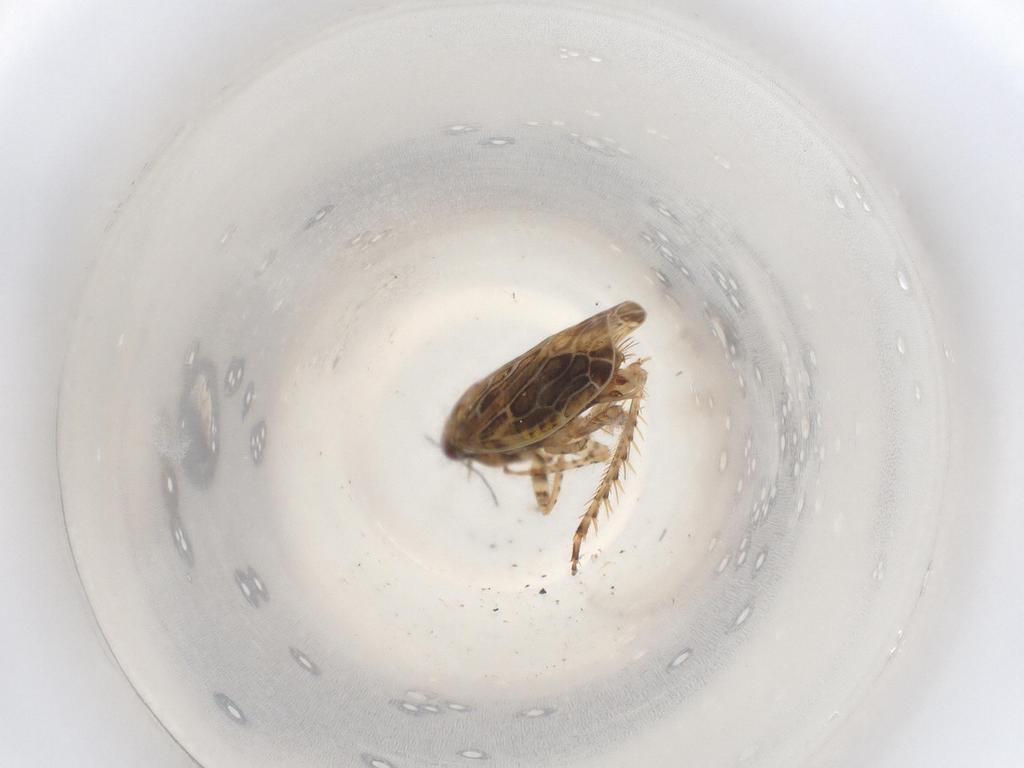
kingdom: Animalia
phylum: Arthropoda
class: Insecta
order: Hemiptera
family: Cicadellidae
